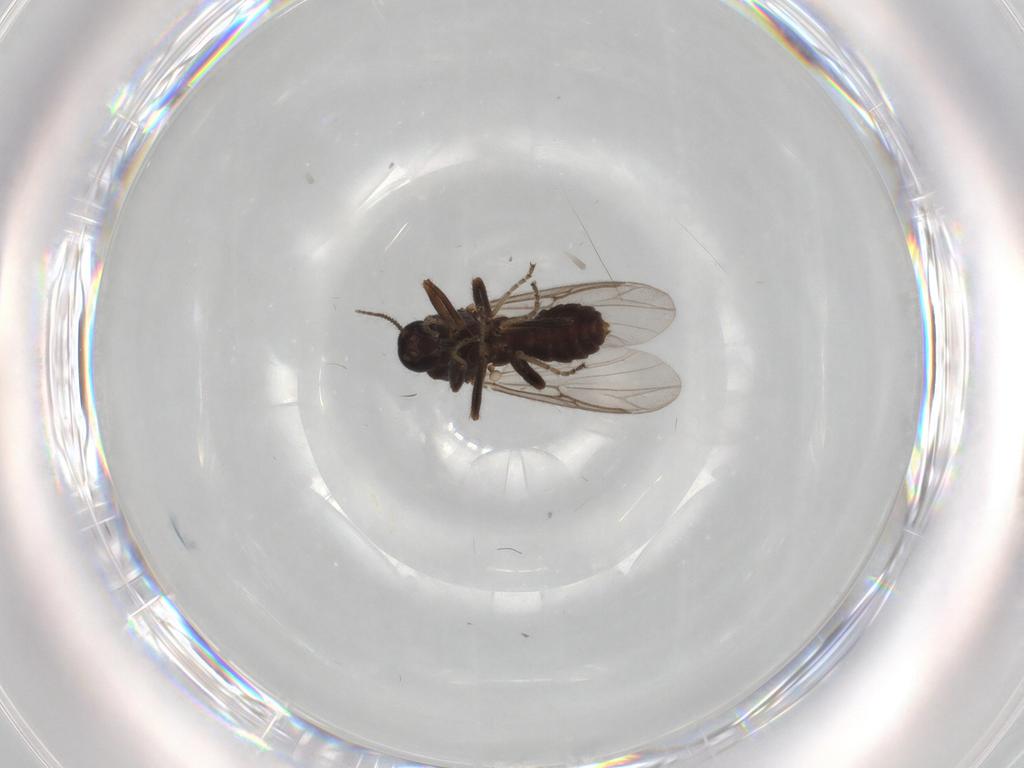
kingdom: Animalia
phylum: Arthropoda
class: Insecta
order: Diptera
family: Ceratopogonidae
